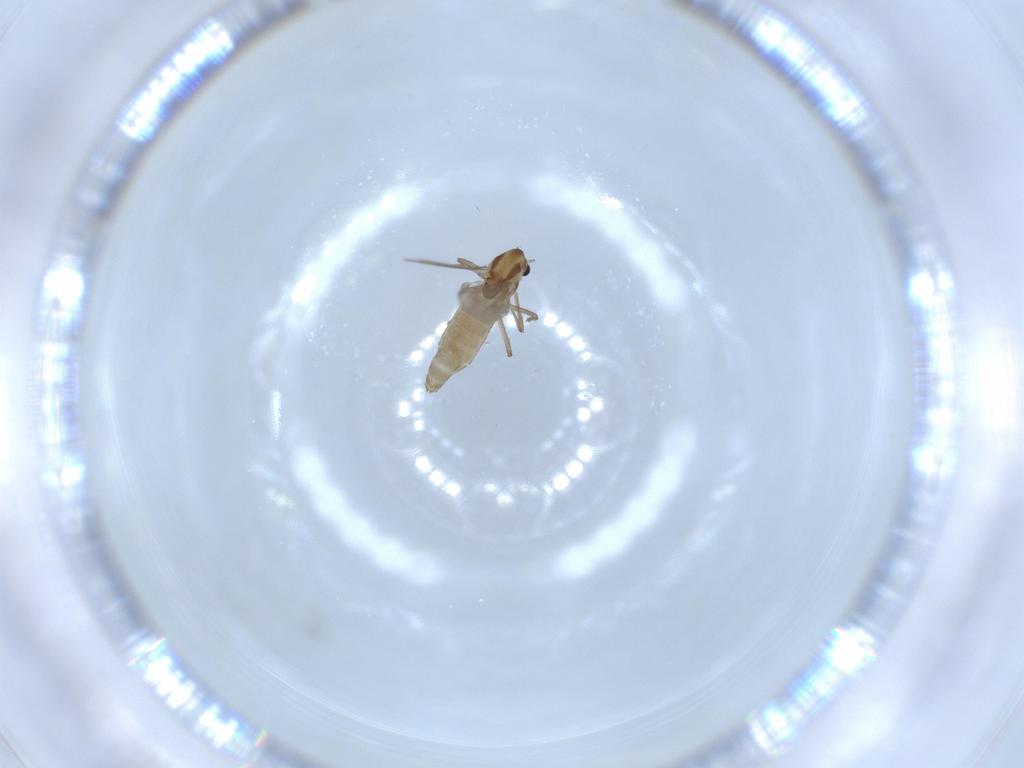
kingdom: Animalia
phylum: Arthropoda
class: Insecta
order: Diptera
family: Chironomidae
